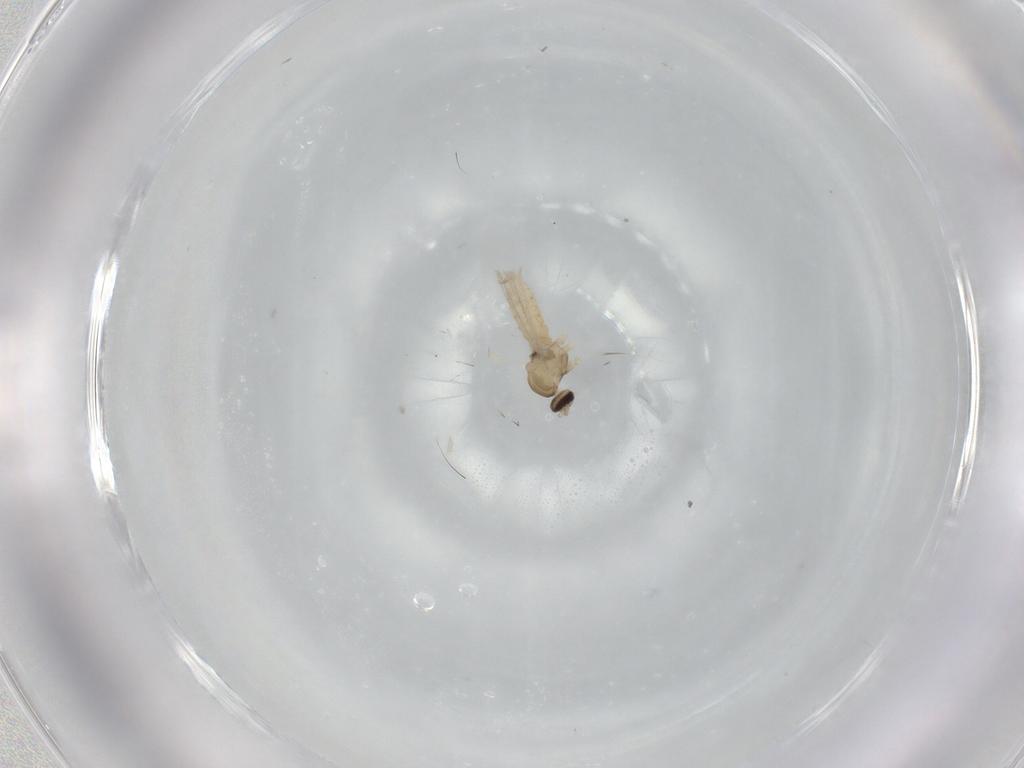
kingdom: Animalia
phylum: Arthropoda
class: Insecta
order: Diptera
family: Cecidomyiidae
